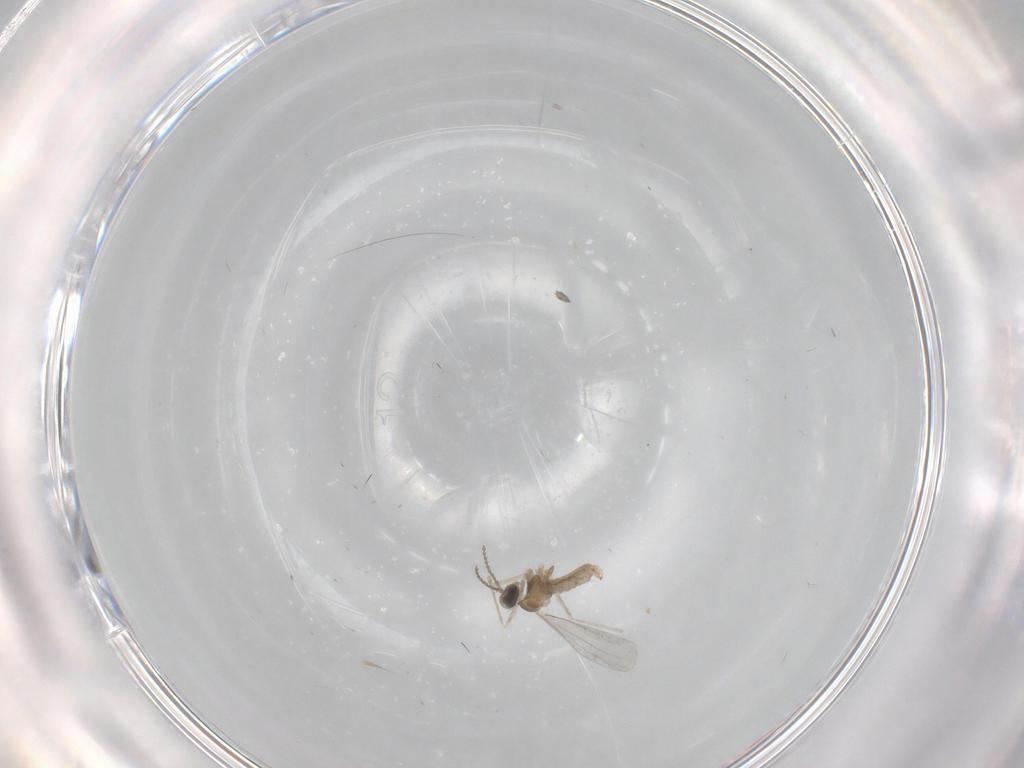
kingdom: Animalia
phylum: Arthropoda
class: Insecta
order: Diptera
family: Cecidomyiidae
